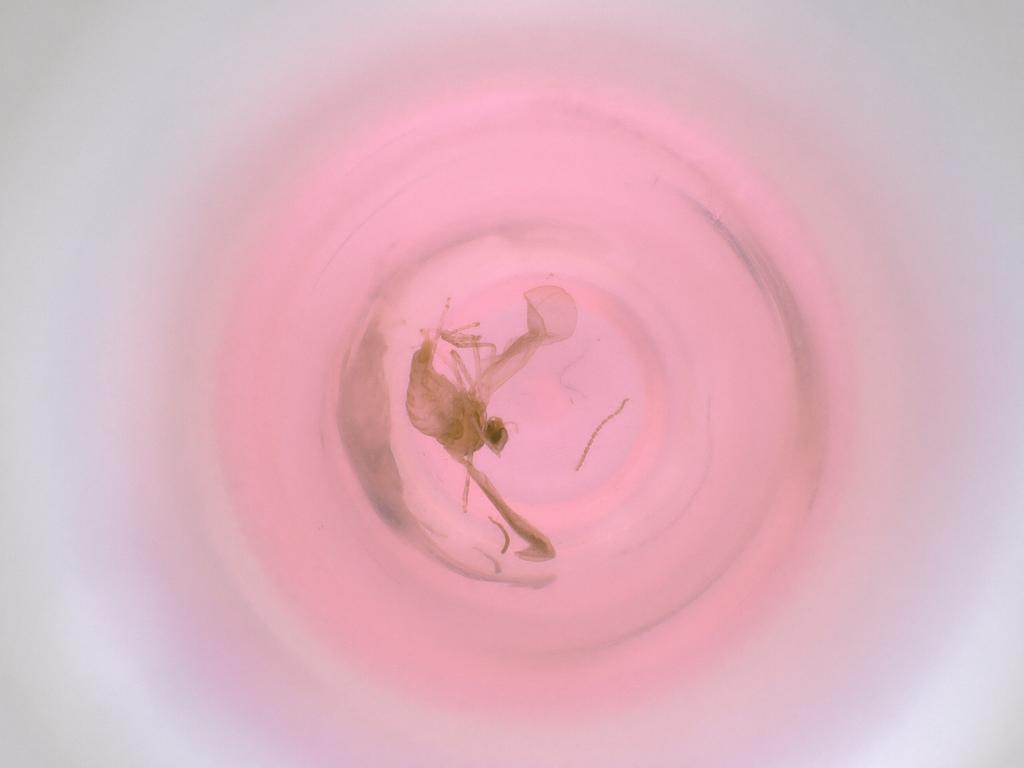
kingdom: Animalia
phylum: Arthropoda
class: Insecta
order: Diptera
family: Cecidomyiidae
